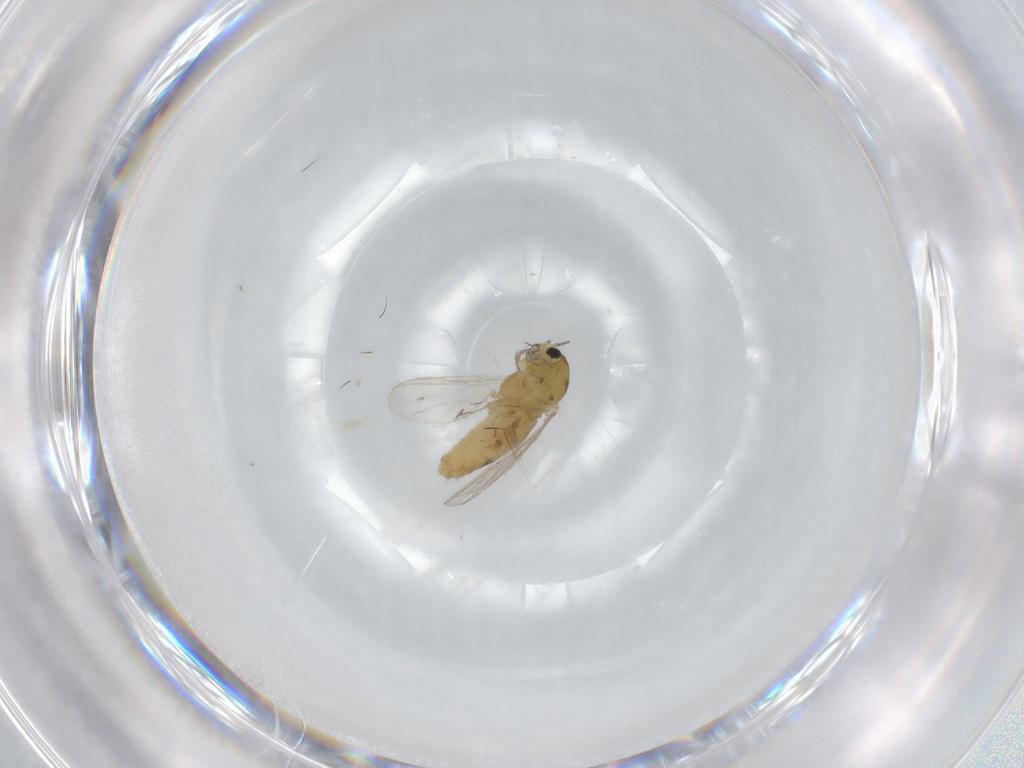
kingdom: Animalia
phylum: Arthropoda
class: Insecta
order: Diptera
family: Chironomidae
